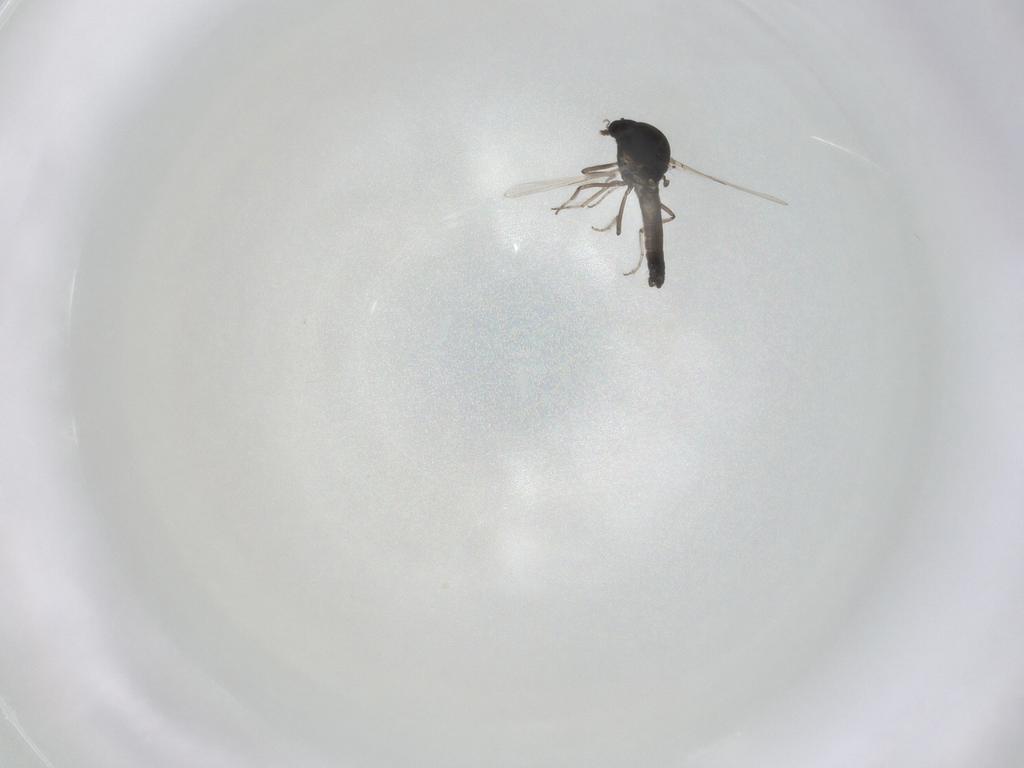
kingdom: Animalia
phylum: Arthropoda
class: Insecta
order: Diptera
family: Ceratopogonidae
